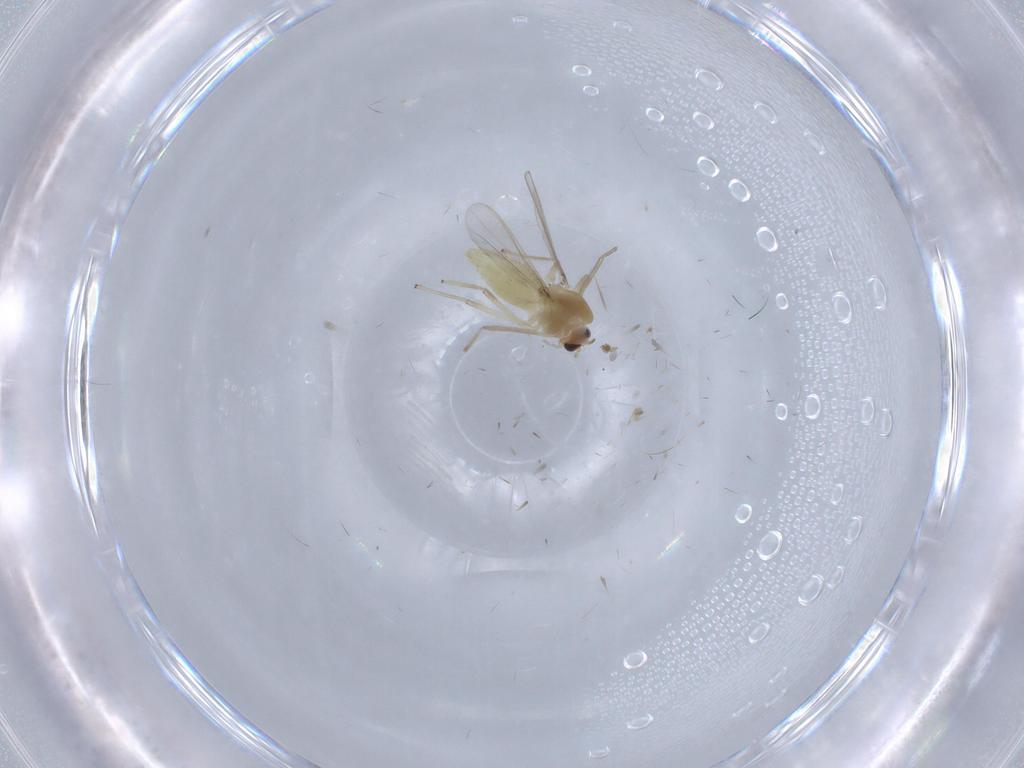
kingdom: Animalia
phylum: Arthropoda
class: Insecta
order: Diptera
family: Chironomidae
